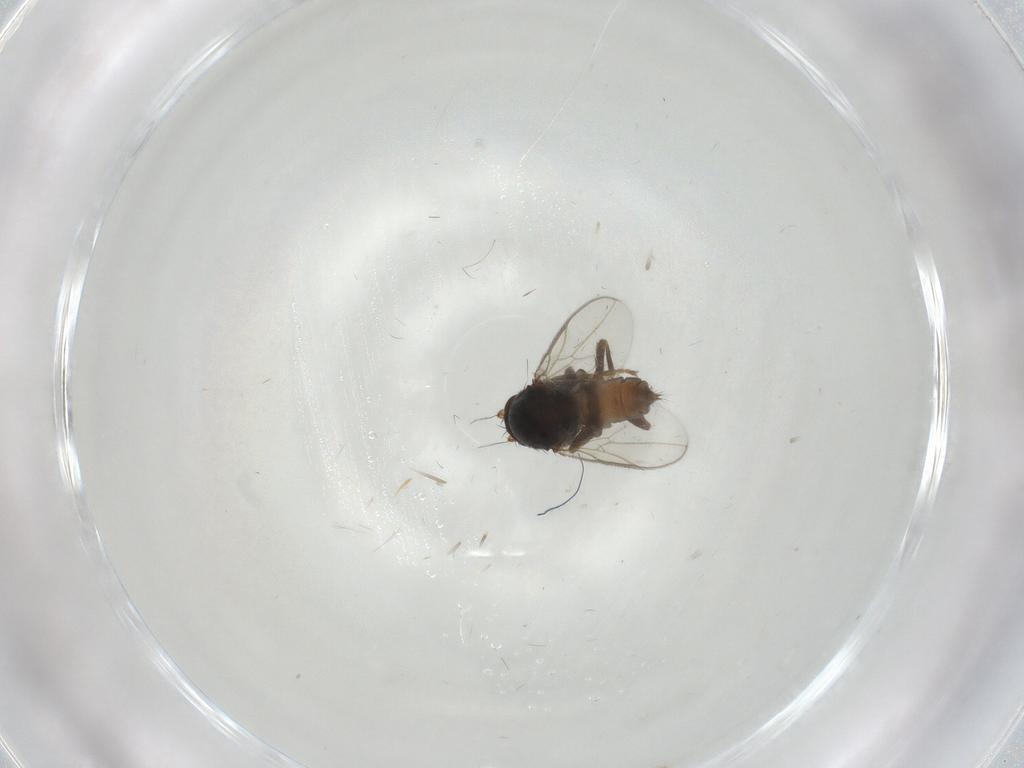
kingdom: Animalia
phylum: Arthropoda
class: Insecta
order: Diptera
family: Sphaeroceridae
